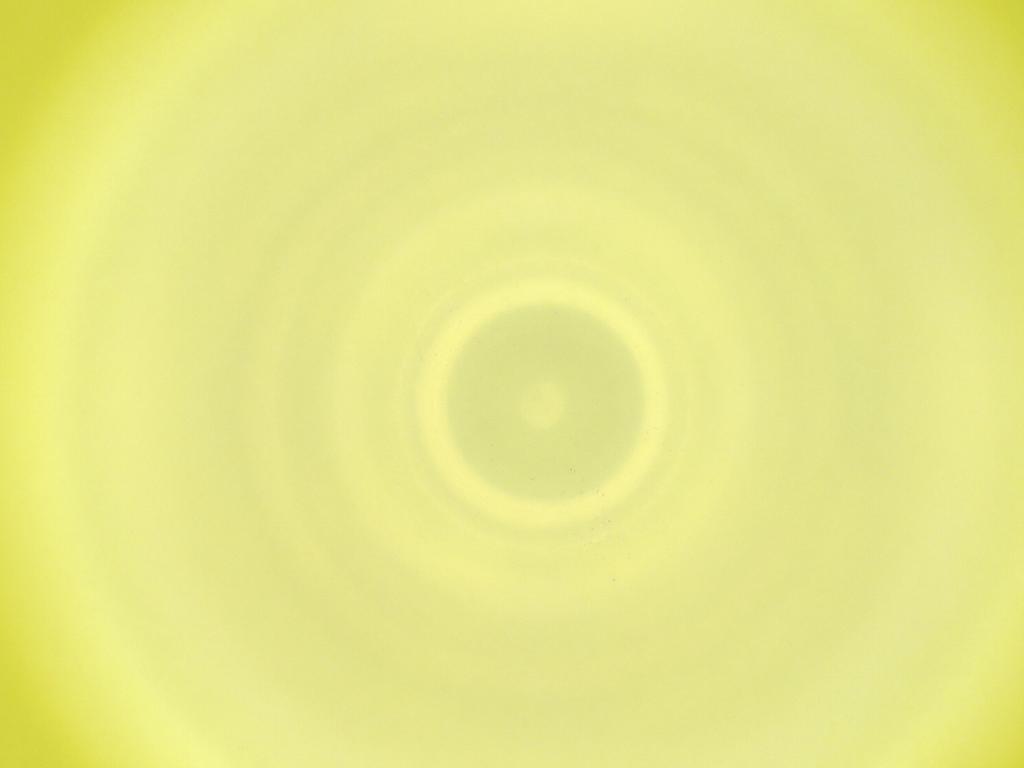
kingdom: Animalia
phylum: Arthropoda
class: Insecta
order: Diptera
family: Cecidomyiidae
